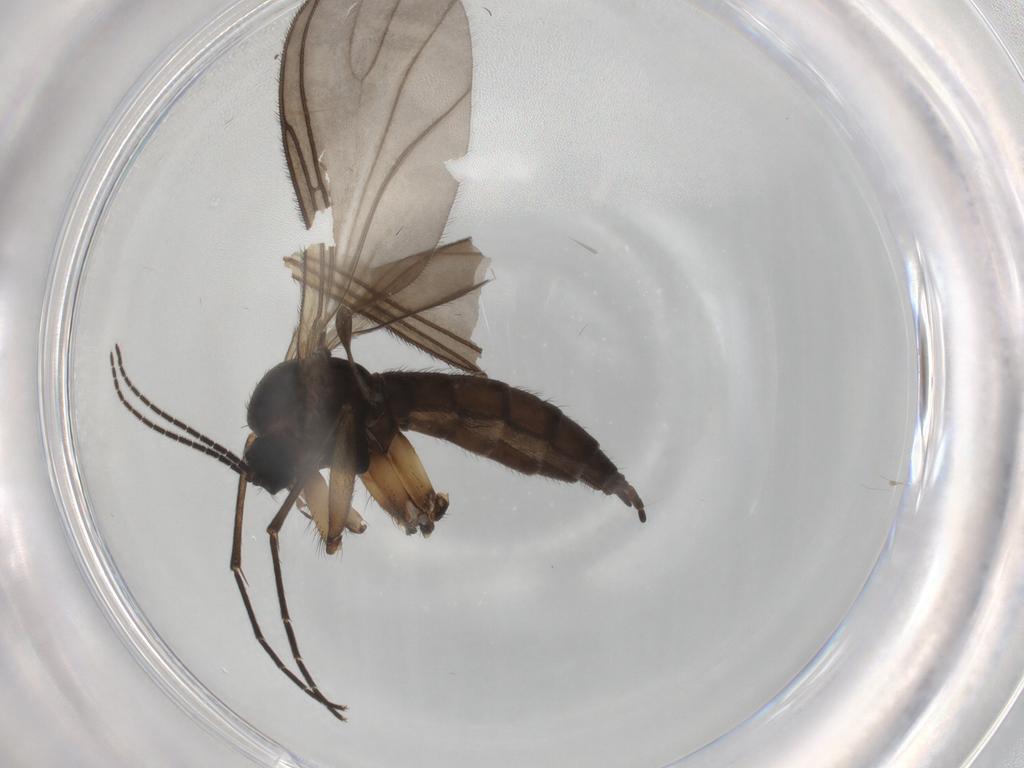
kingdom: Animalia
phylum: Arthropoda
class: Insecta
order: Diptera
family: Sciaridae
